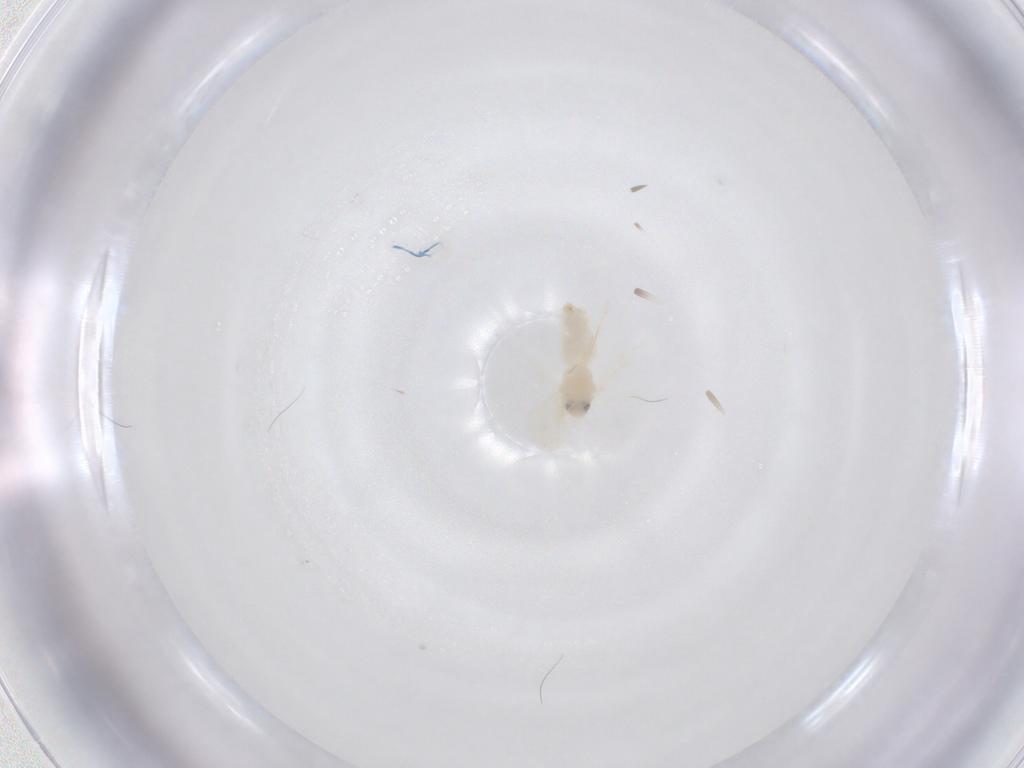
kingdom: Animalia
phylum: Arthropoda
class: Insecta
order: Hemiptera
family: Aleyrodidae
